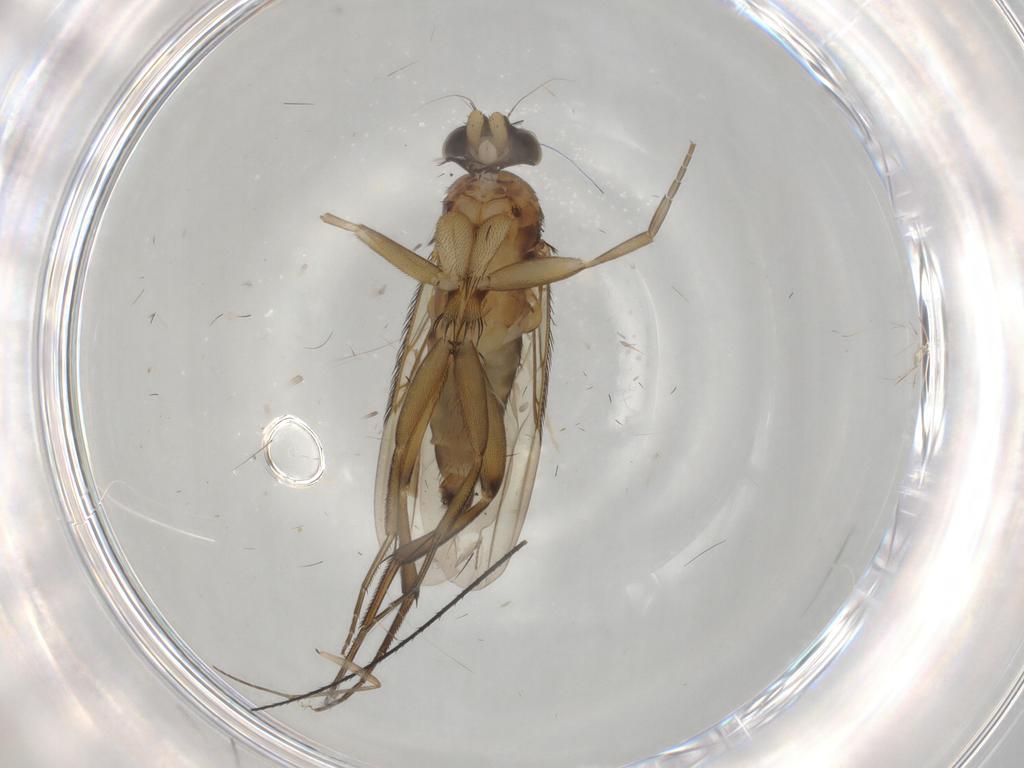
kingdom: Animalia
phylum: Arthropoda
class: Insecta
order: Diptera
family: Phoridae
